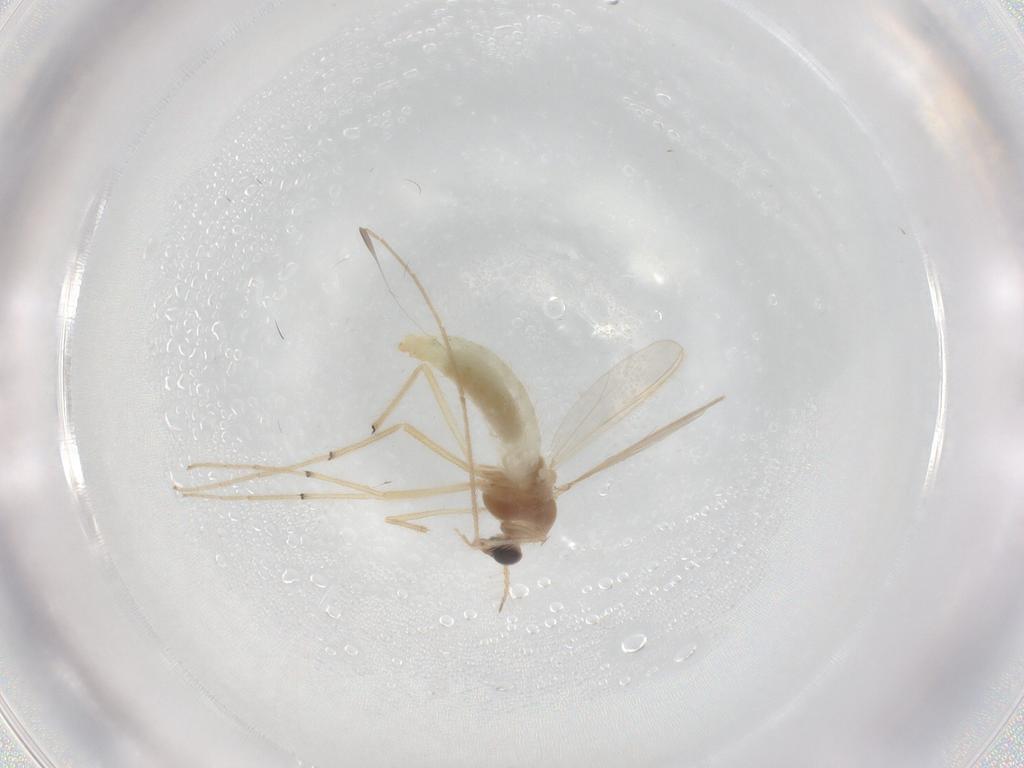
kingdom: Animalia
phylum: Arthropoda
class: Insecta
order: Diptera
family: Chironomidae
